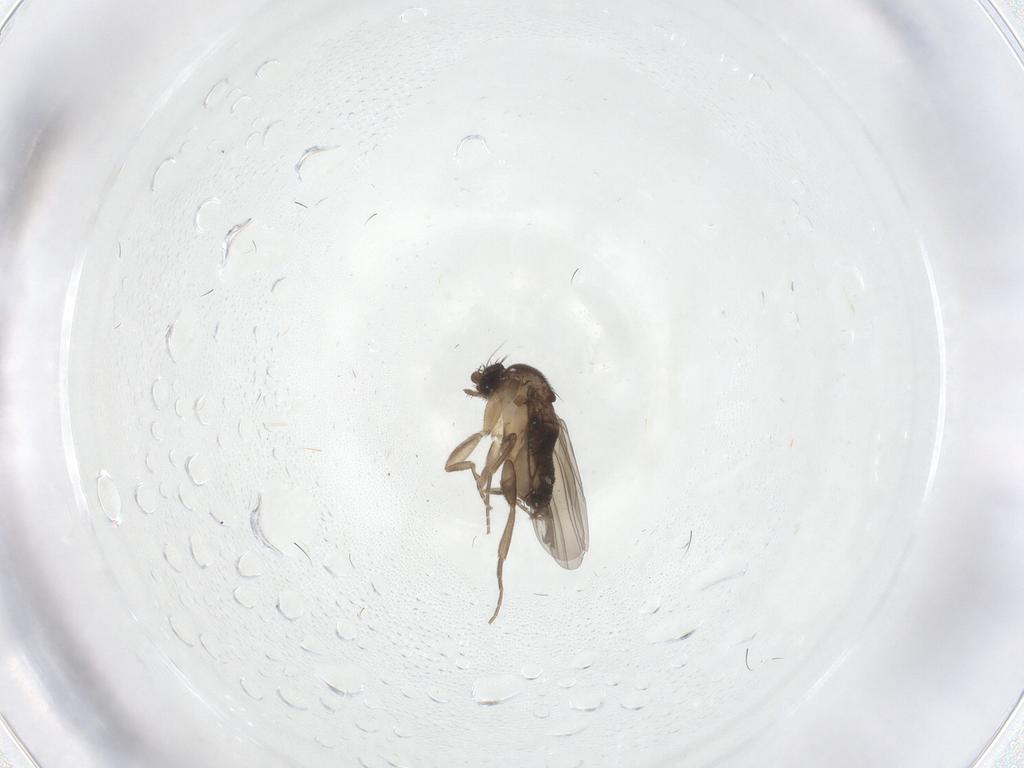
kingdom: Animalia
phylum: Arthropoda
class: Insecta
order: Diptera
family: Phoridae
